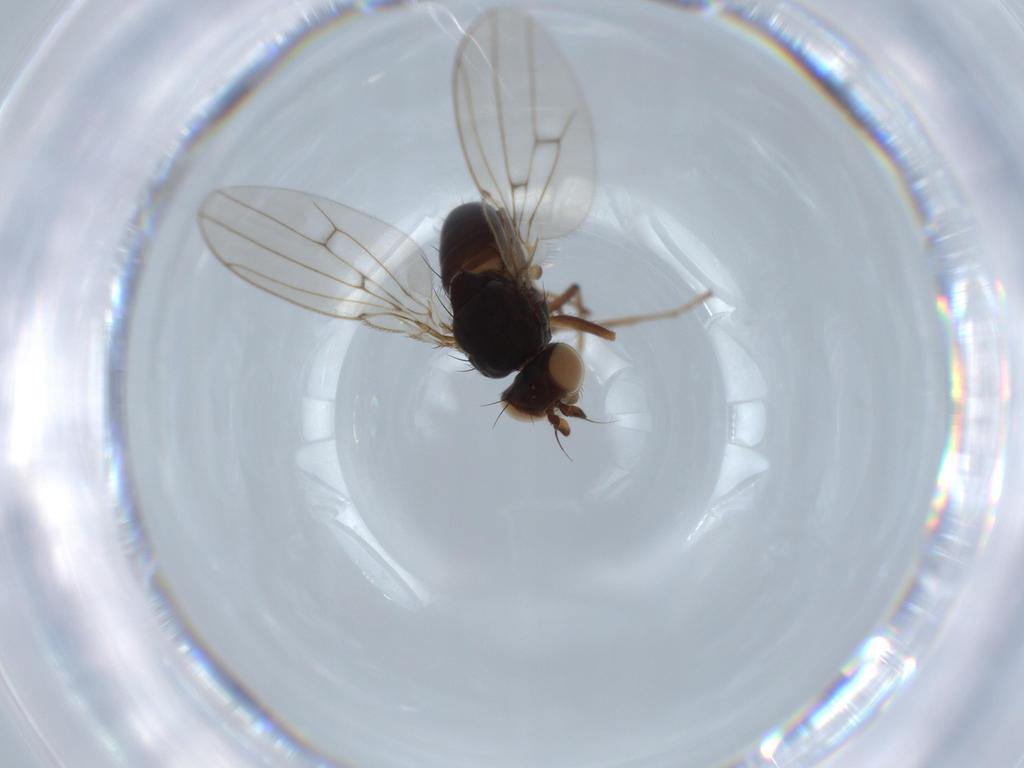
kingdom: Animalia
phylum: Arthropoda
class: Insecta
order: Diptera
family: Ephydridae
